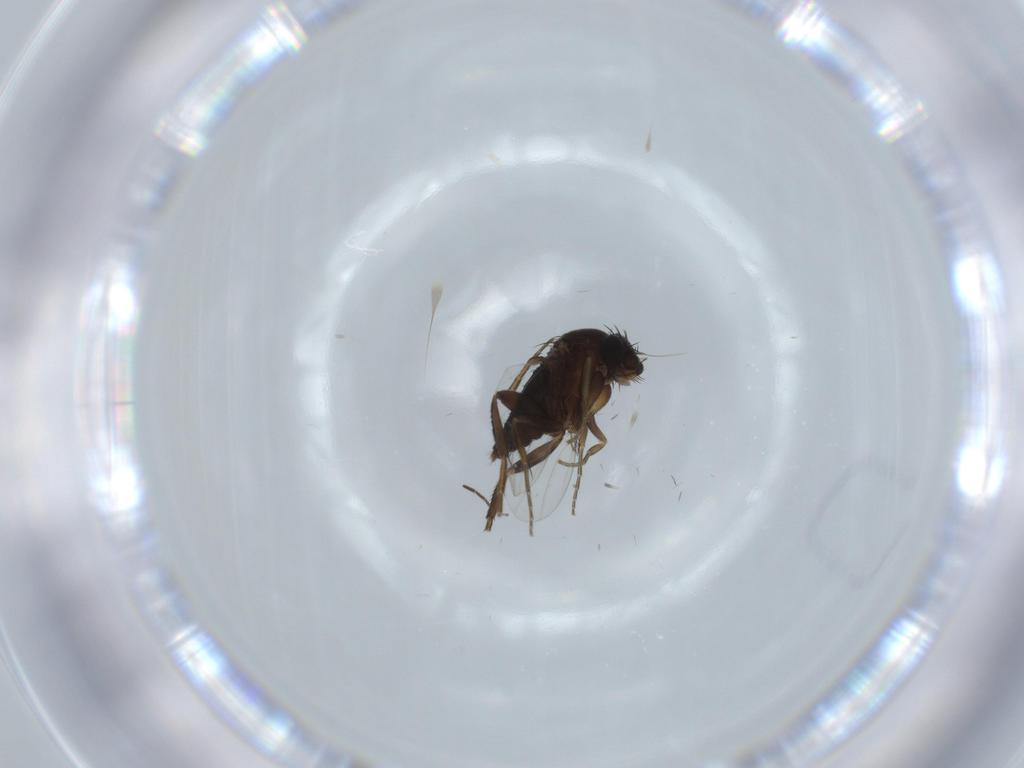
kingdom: Animalia
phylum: Arthropoda
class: Insecta
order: Diptera
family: Phoridae
